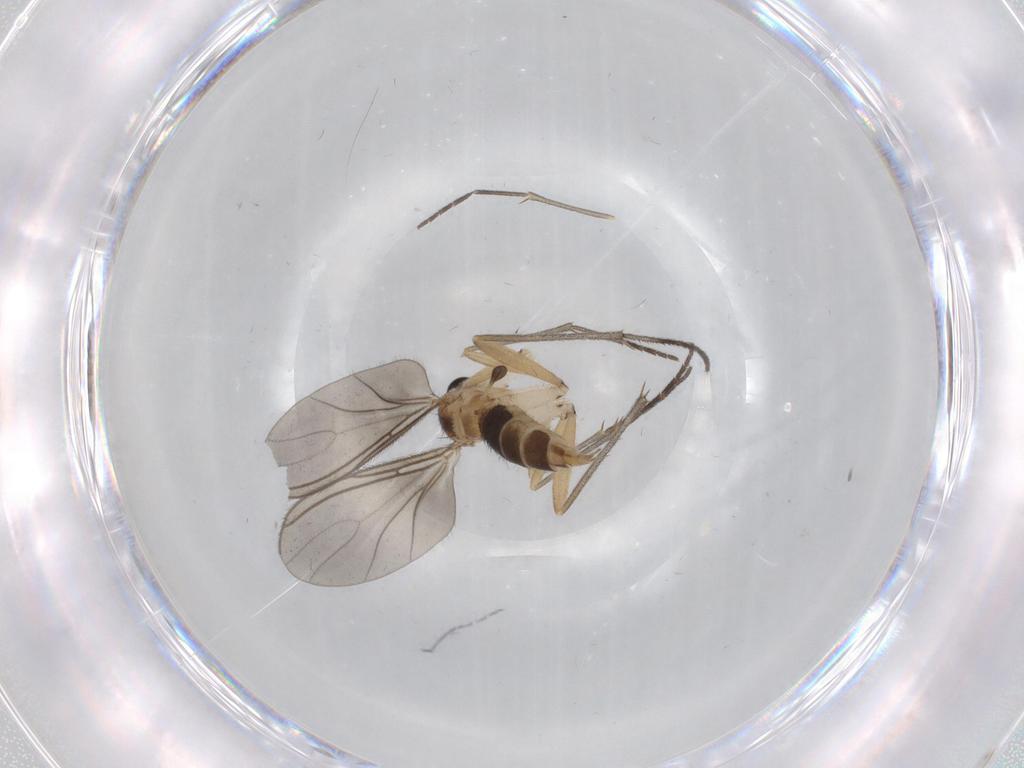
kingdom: Animalia
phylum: Arthropoda
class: Insecta
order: Diptera
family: Sciaridae
